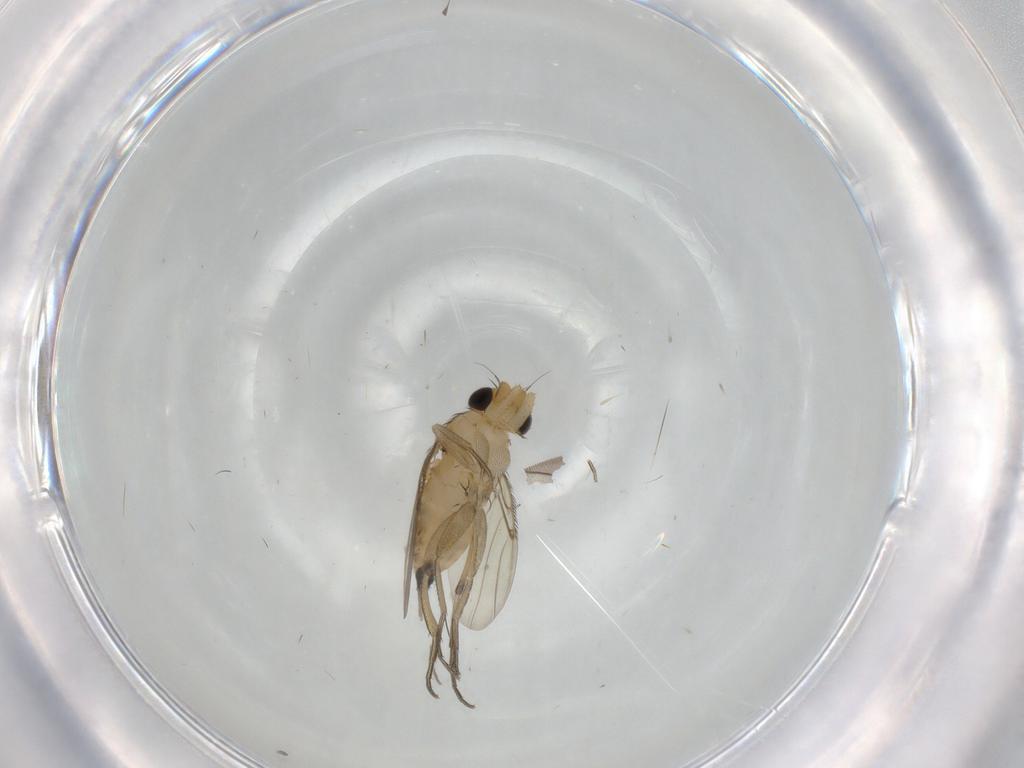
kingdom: Animalia
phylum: Arthropoda
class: Insecta
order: Diptera
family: Phoridae
